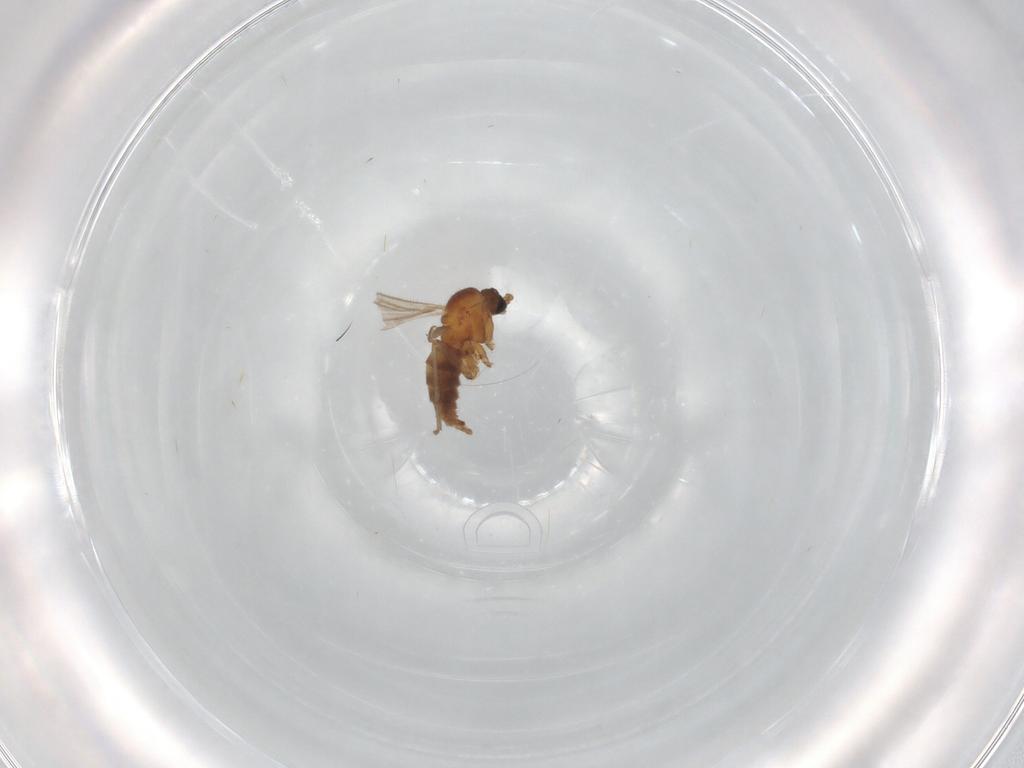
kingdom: Animalia
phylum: Arthropoda
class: Insecta
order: Diptera
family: Sciaridae
